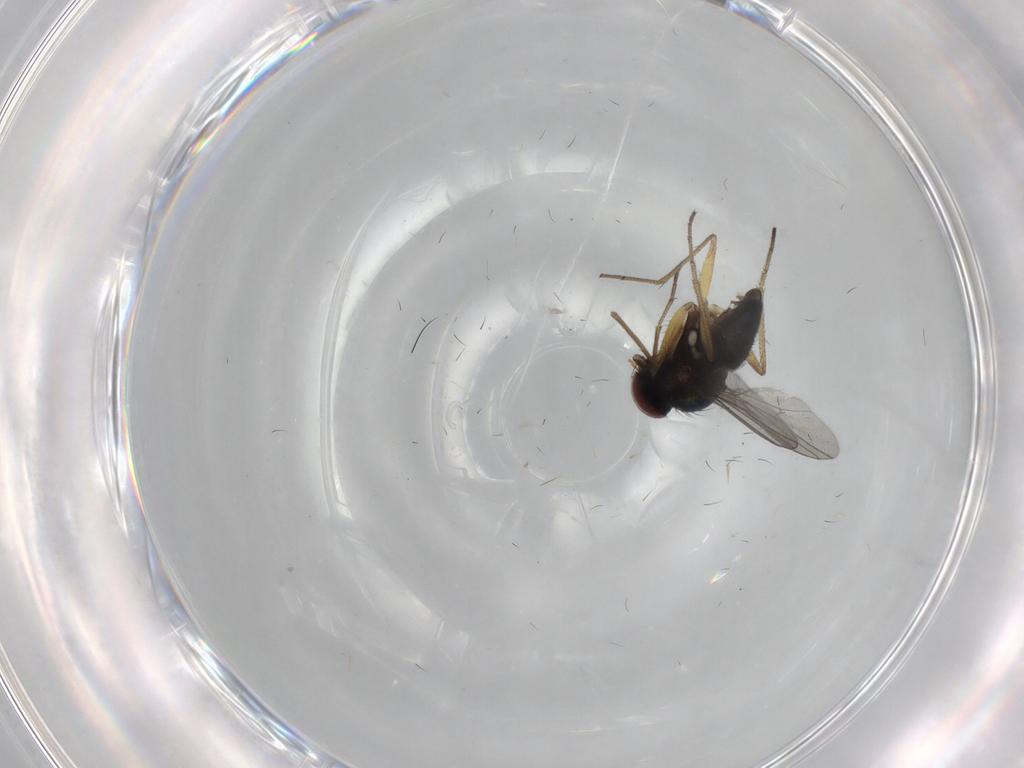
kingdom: Animalia
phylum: Arthropoda
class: Insecta
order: Diptera
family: Dolichopodidae
